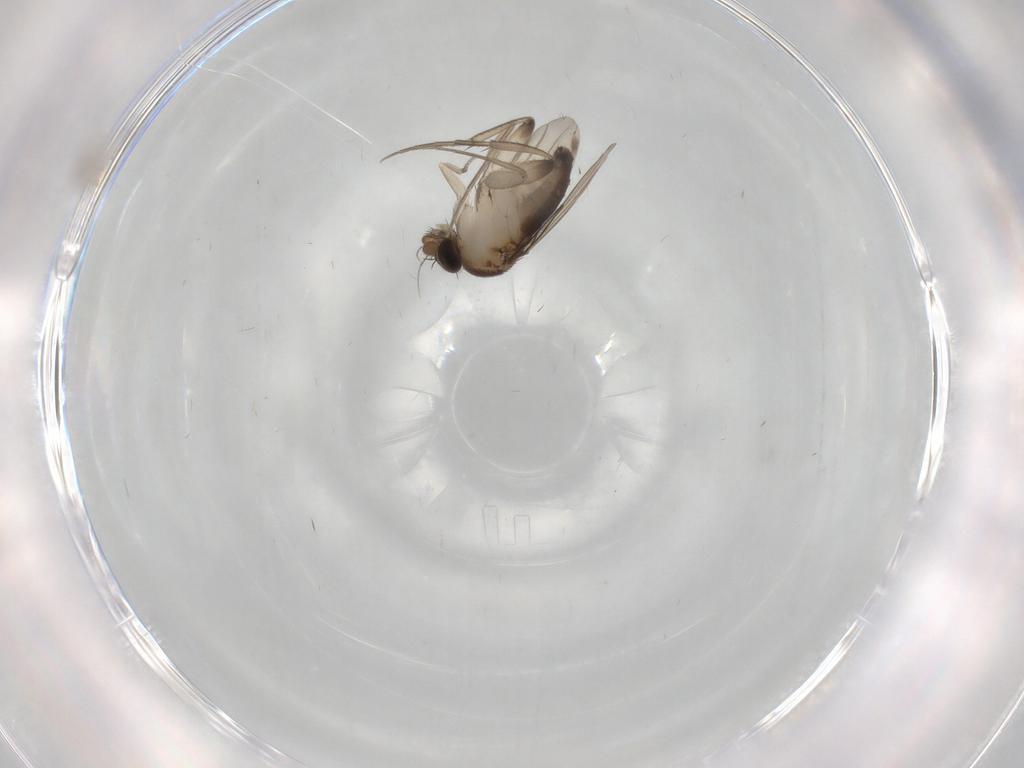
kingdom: Animalia
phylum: Arthropoda
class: Insecta
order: Diptera
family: Phoridae
